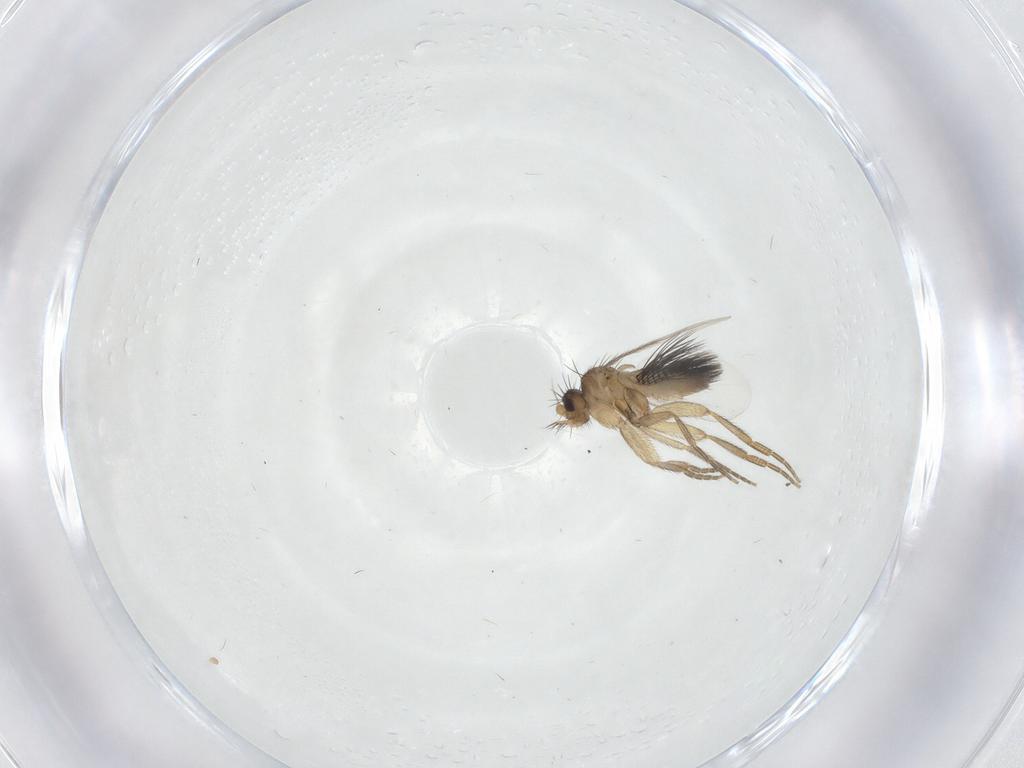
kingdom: Animalia
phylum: Arthropoda
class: Insecta
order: Diptera
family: Phoridae
